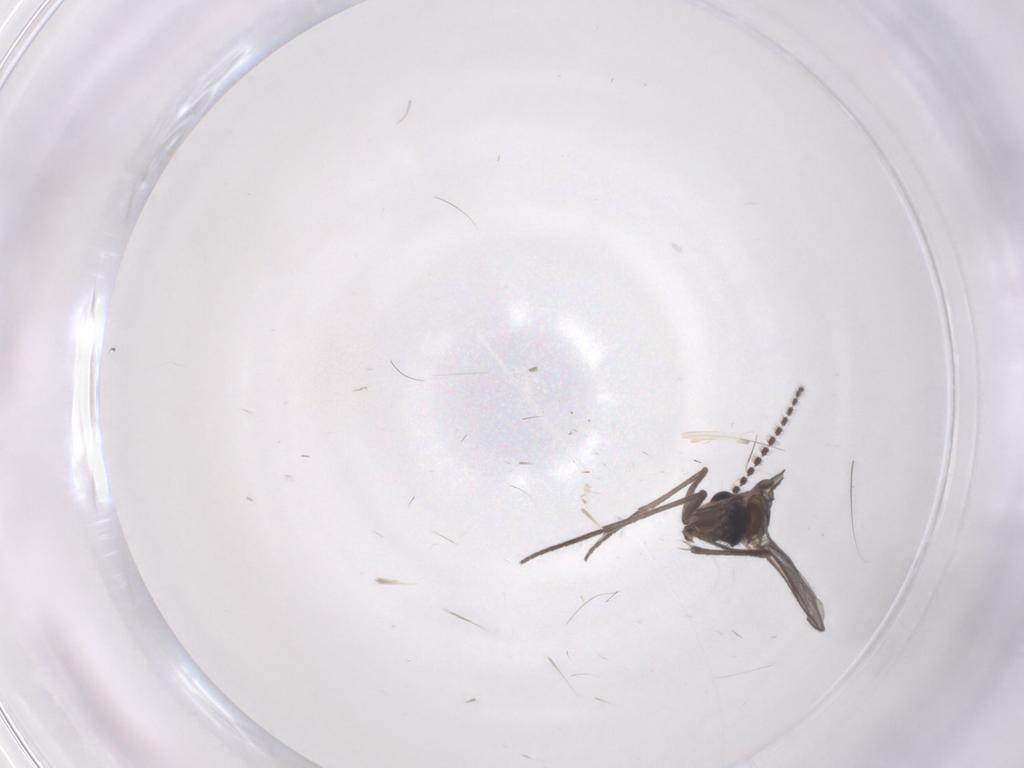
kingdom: Animalia
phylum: Arthropoda
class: Insecta
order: Diptera
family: Sciaridae
